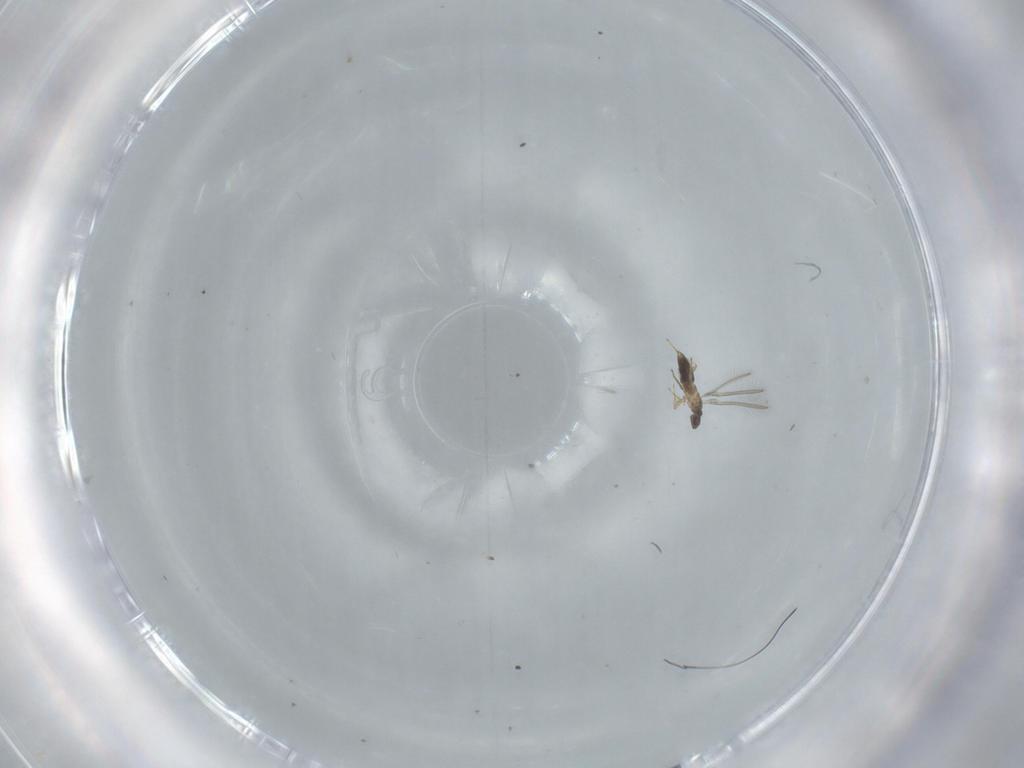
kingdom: Animalia
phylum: Arthropoda
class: Insecta
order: Hymenoptera
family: Mymaridae
